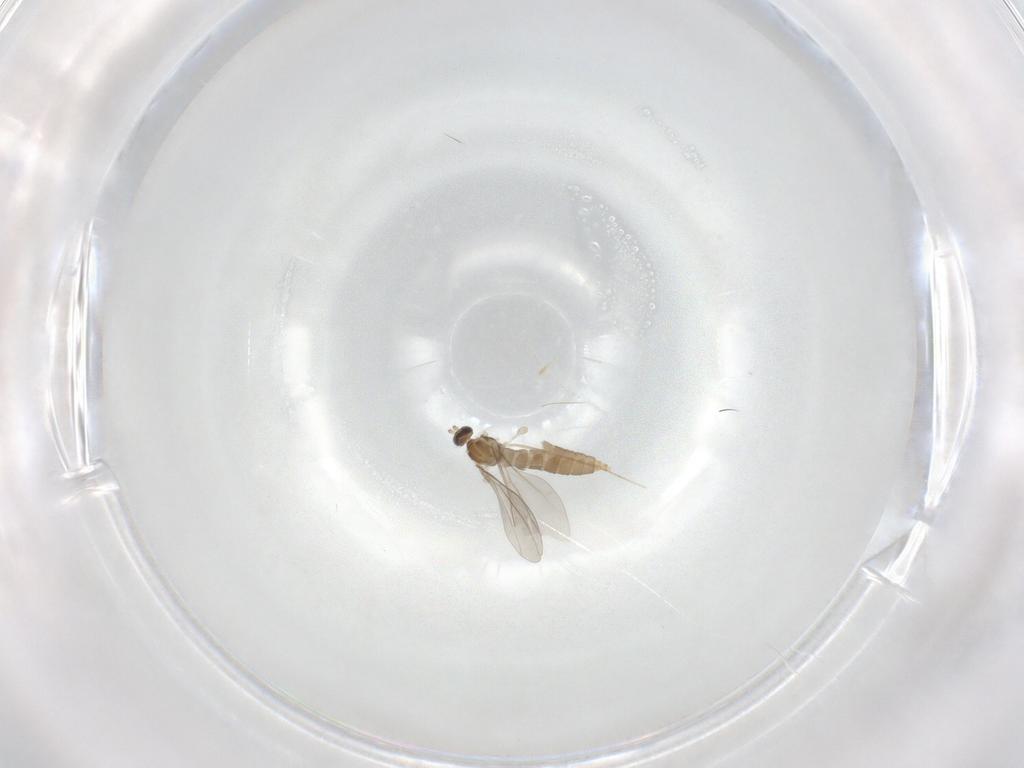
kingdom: Animalia
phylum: Arthropoda
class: Insecta
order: Diptera
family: Cecidomyiidae
